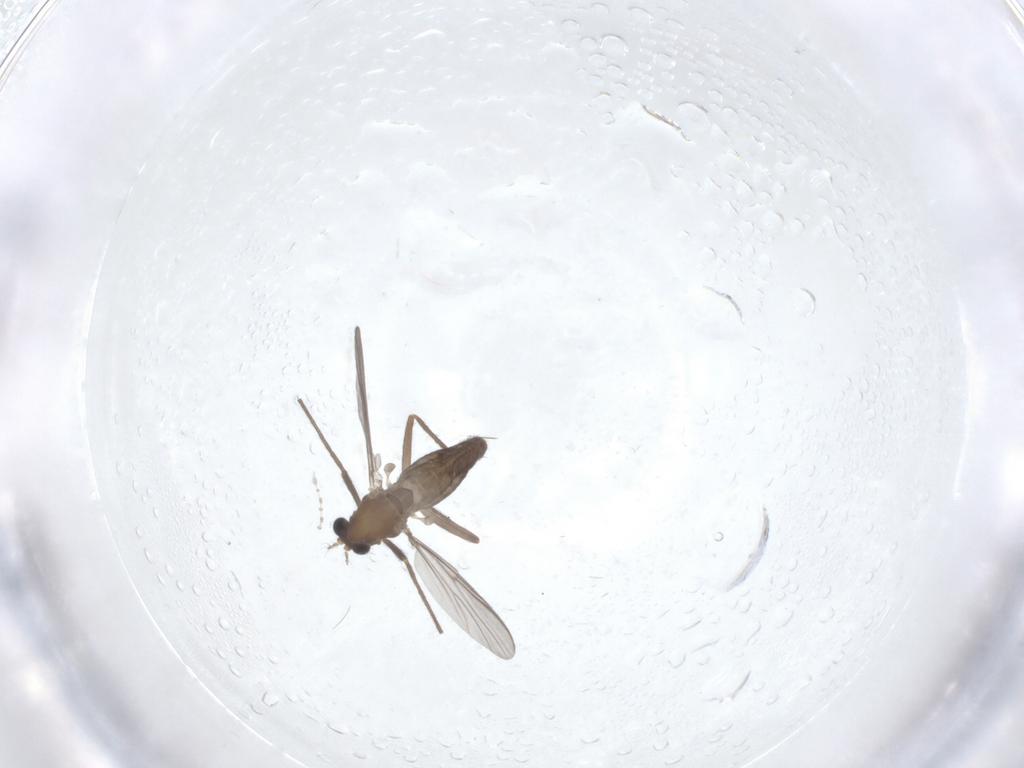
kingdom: Animalia
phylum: Arthropoda
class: Insecta
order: Diptera
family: Chironomidae
